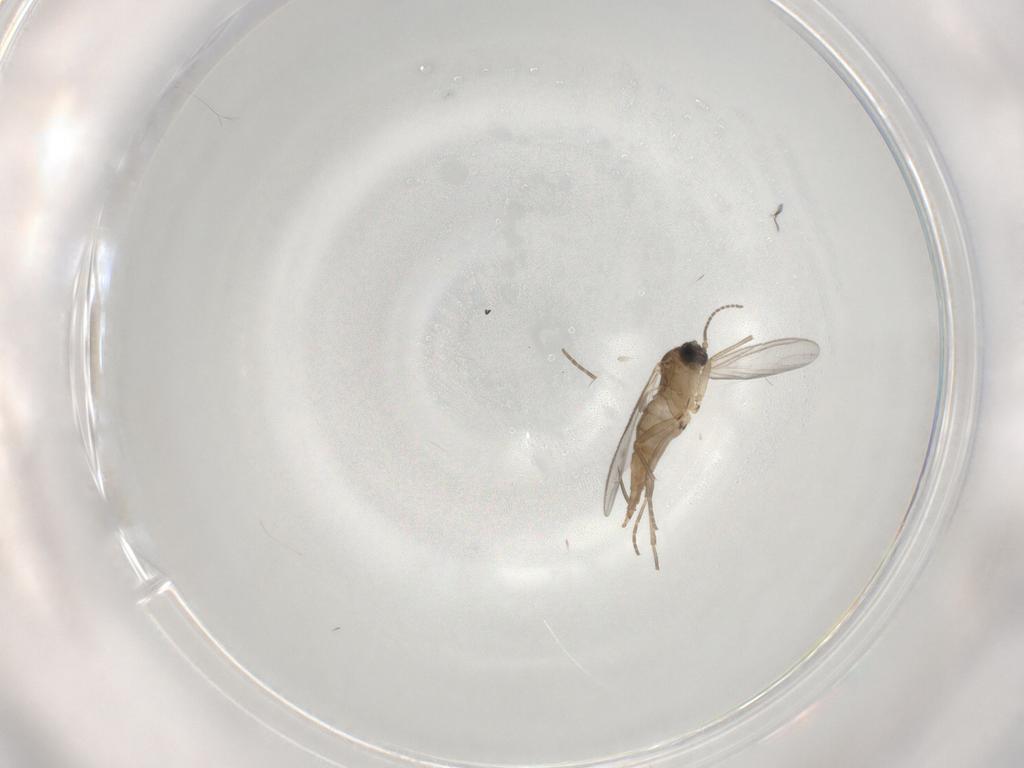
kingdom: Animalia
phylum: Arthropoda
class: Insecta
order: Diptera
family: Sciaridae
